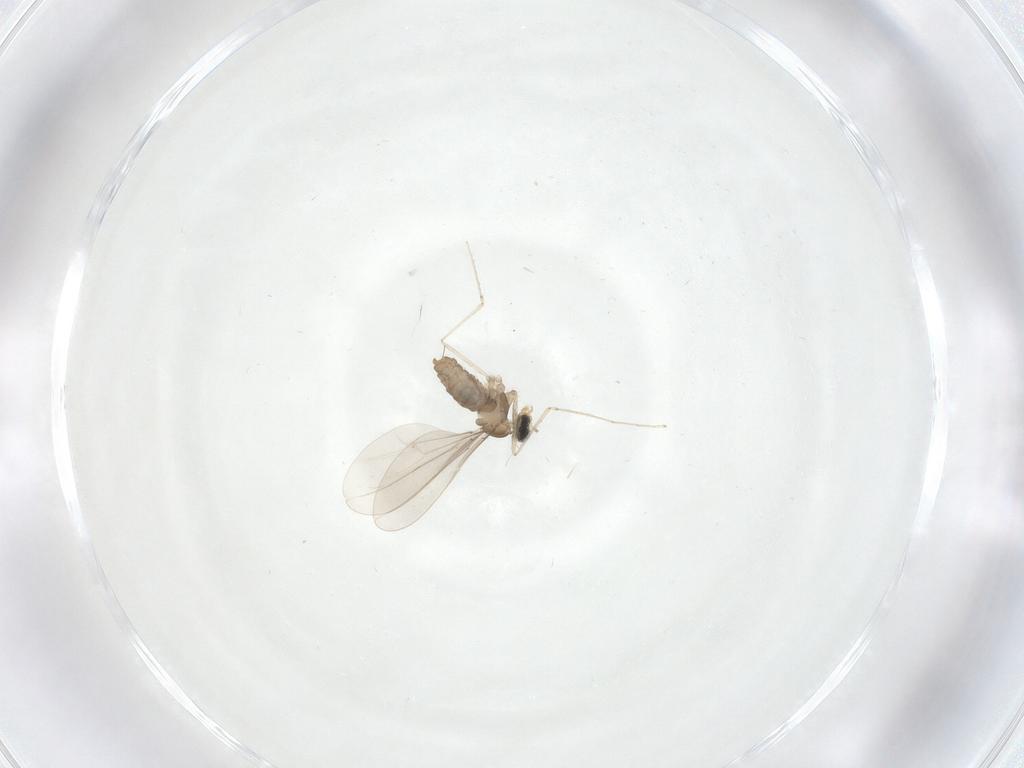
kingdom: Animalia
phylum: Arthropoda
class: Insecta
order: Diptera
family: Cecidomyiidae
